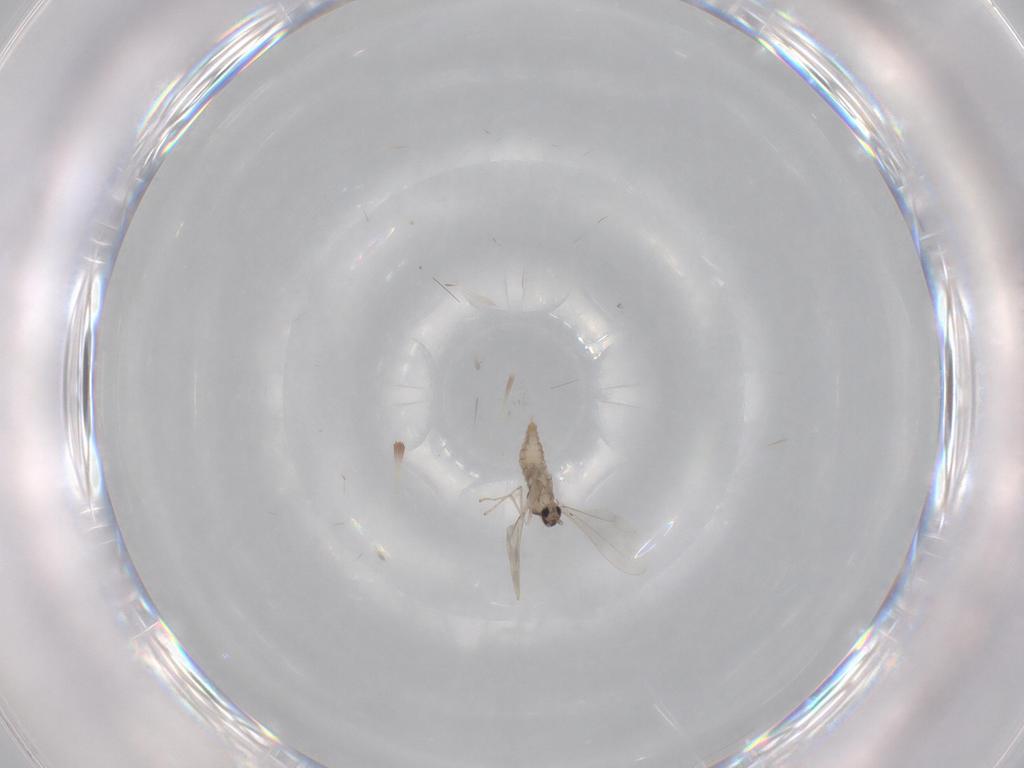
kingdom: Animalia
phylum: Arthropoda
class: Insecta
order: Diptera
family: Cecidomyiidae
